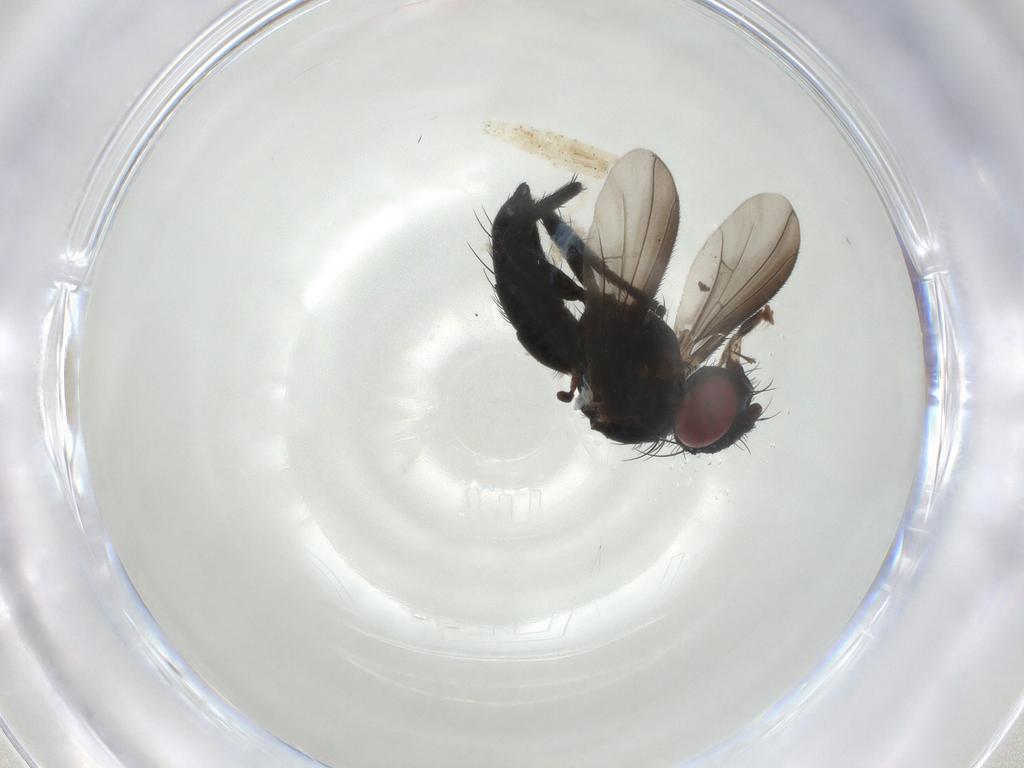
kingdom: Animalia
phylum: Arthropoda
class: Insecta
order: Diptera
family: Tachinidae
